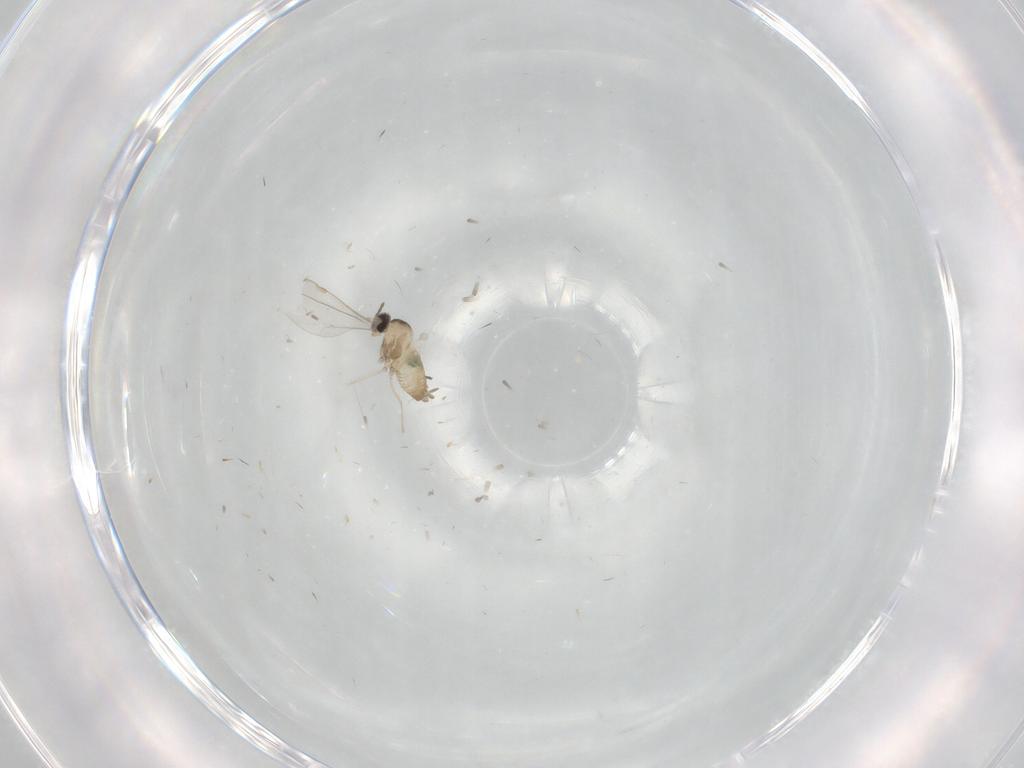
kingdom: Animalia
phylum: Arthropoda
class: Insecta
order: Diptera
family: Cecidomyiidae
